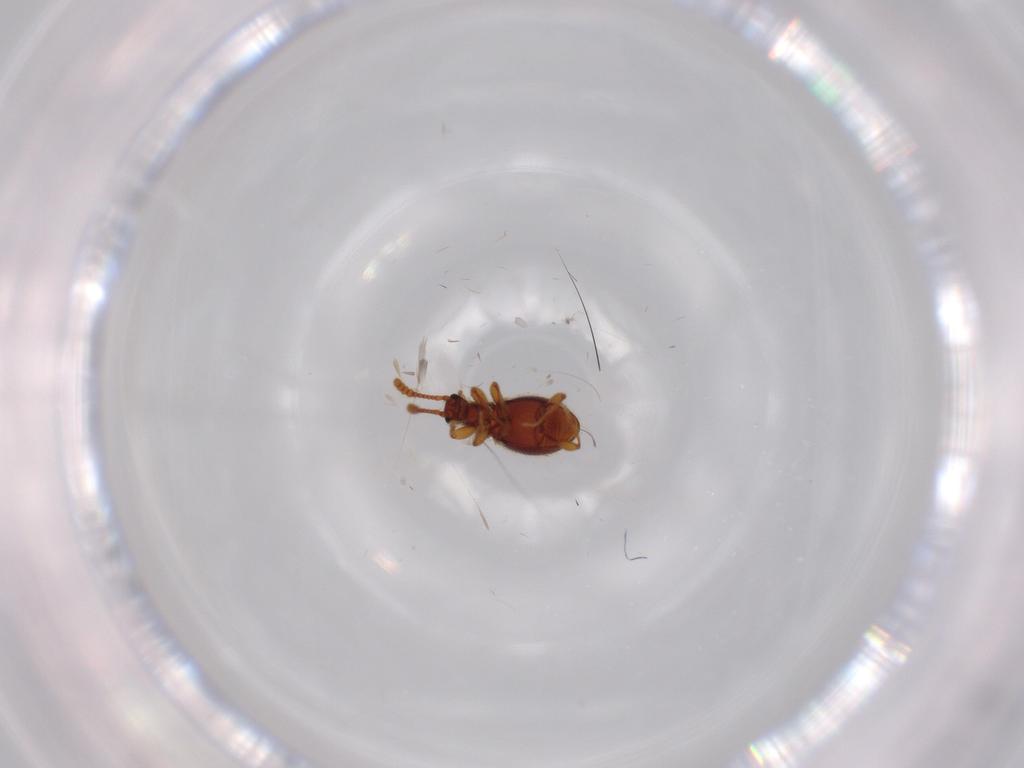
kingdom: Animalia
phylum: Arthropoda
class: Insecta
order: Coleoptera
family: Staphylinidae
